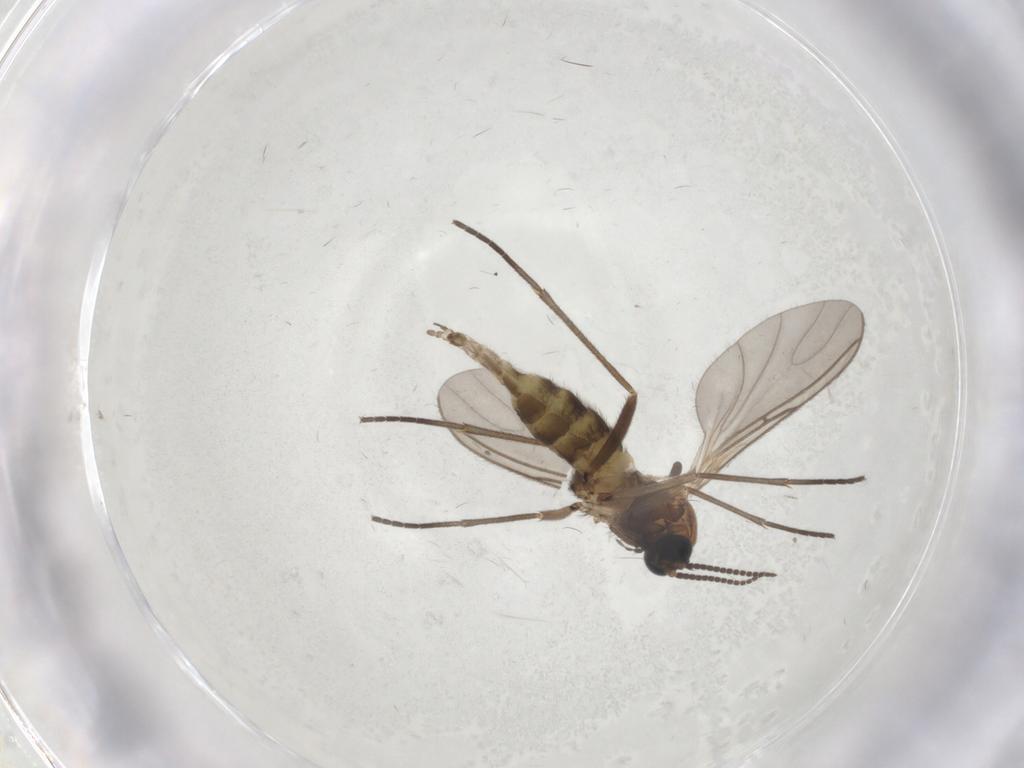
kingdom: Animalia
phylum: Arthropoda
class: Insecta
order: Diptera
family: Sciaridae
